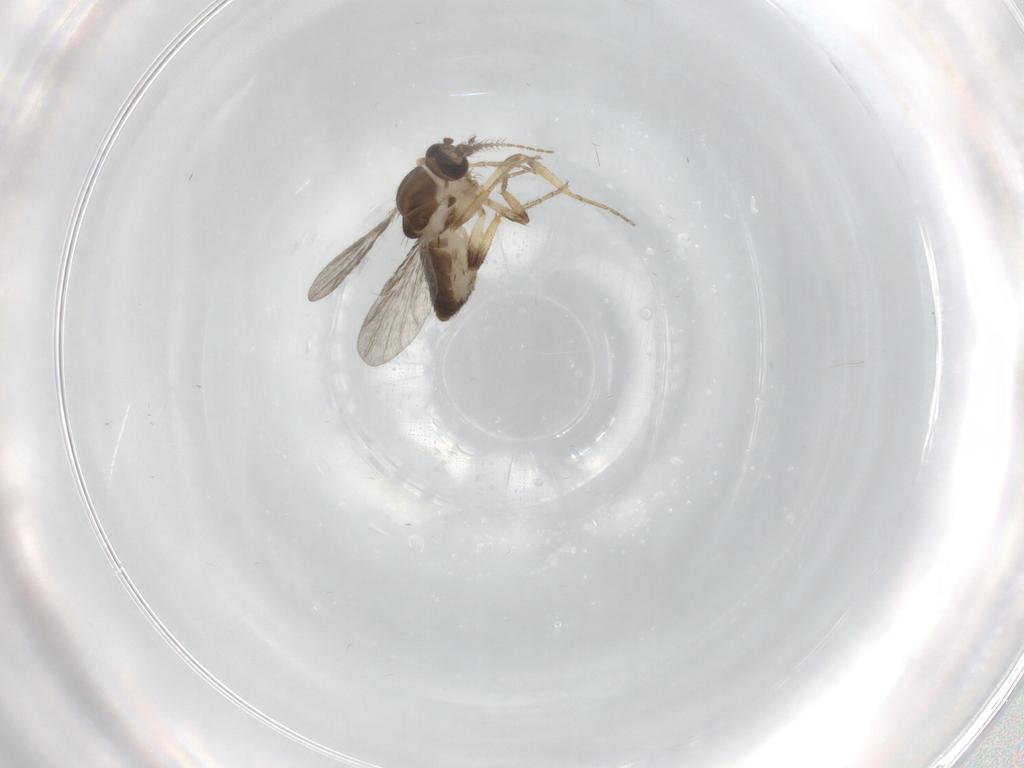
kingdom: Animalia
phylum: Arthropoda
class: Insecta
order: Diptera
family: Ceratopogonidae
